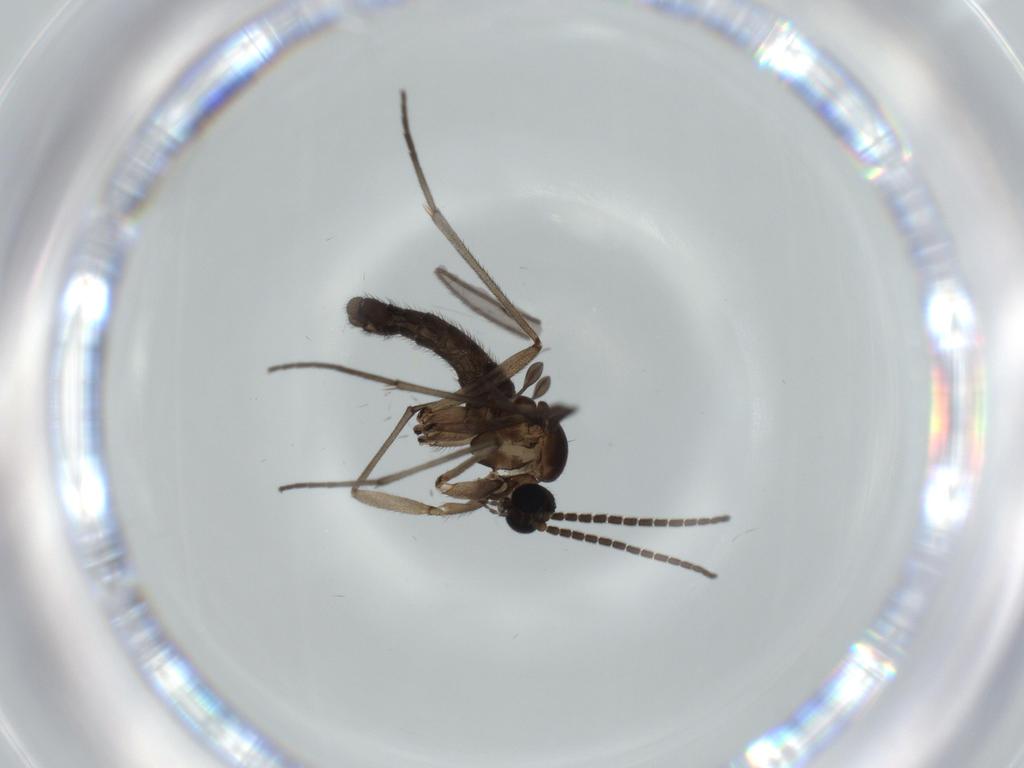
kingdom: Animalia
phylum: Arthropoda
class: Insecta
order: Diptera
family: Sciaridae
